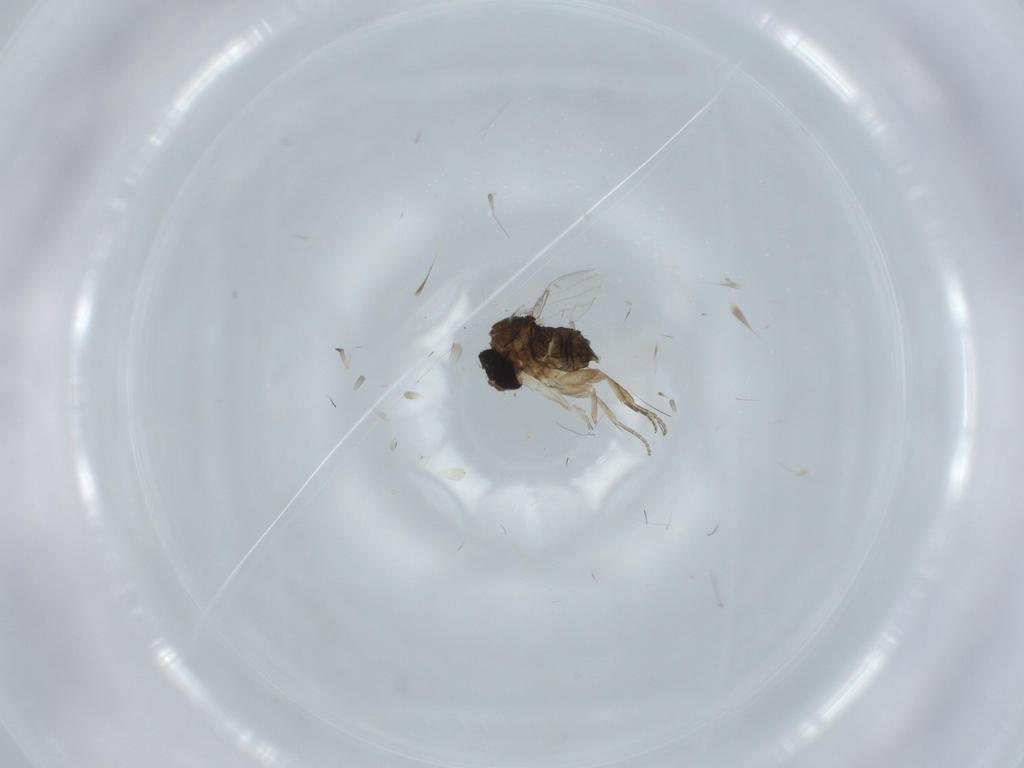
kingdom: Animalia
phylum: Arthropoda
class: Insecta
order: Diptera
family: Phoridae
